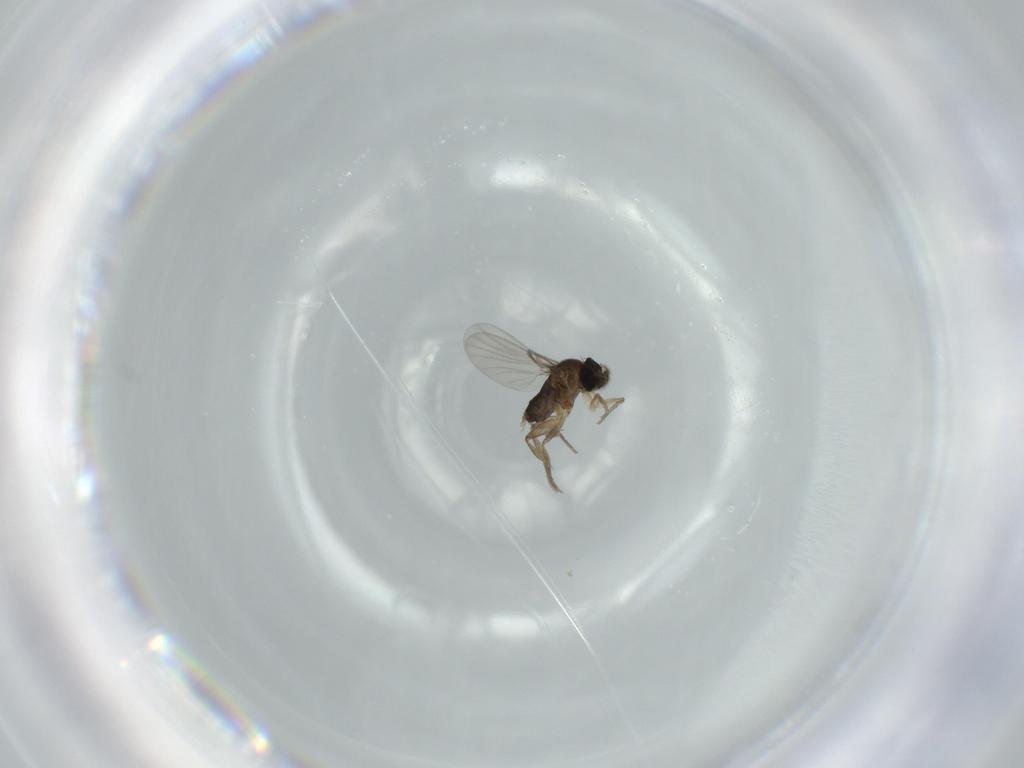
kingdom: Animalia
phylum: Arthropoda
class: Insecta
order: Diptera
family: Phoridae
